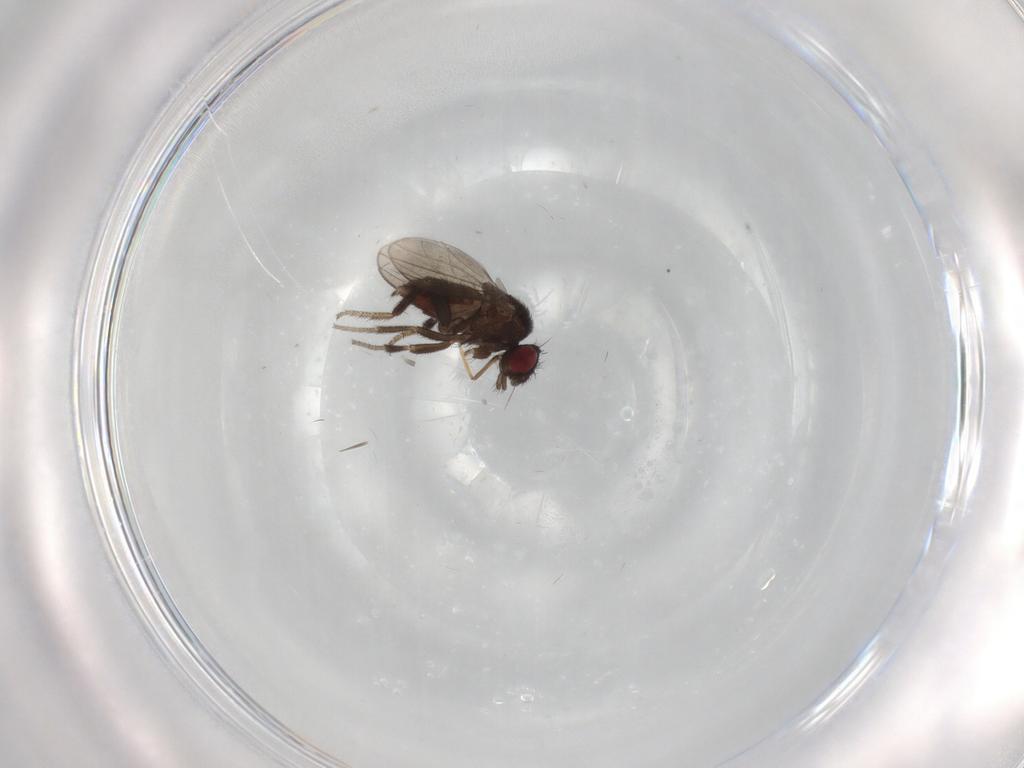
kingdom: Animalia
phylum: Arthropoda
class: Insecta
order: Diptera
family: Milichiidae
